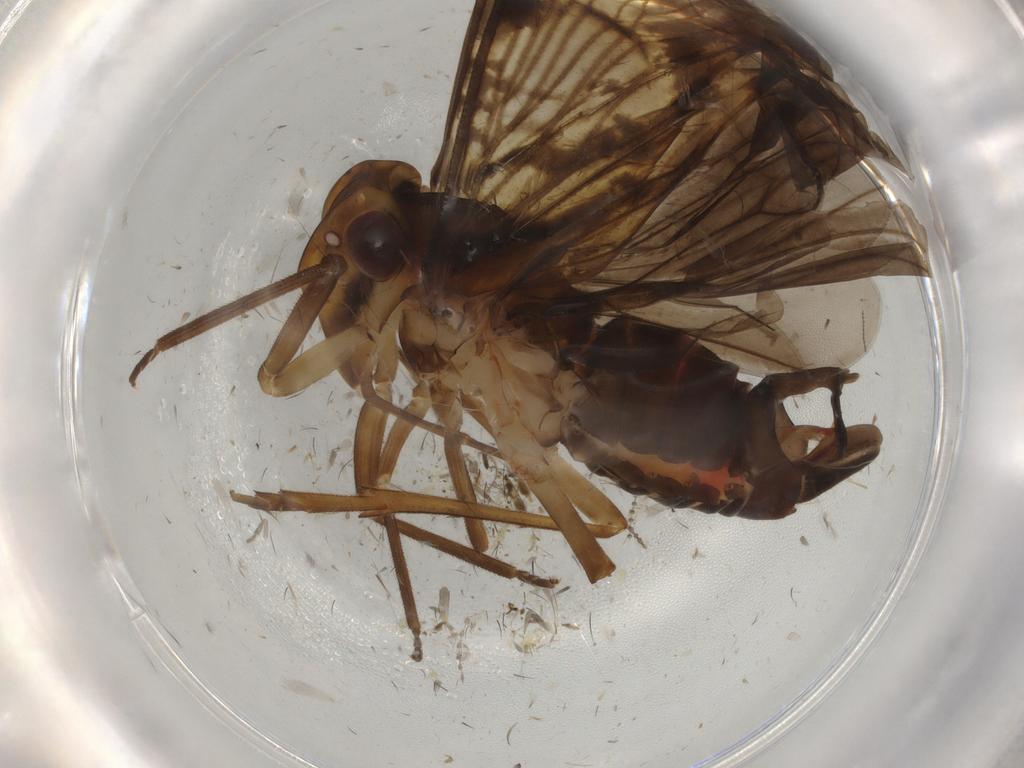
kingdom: Animalia
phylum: Arthropoda
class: Insecta
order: Hemiptera
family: Cixiidae
